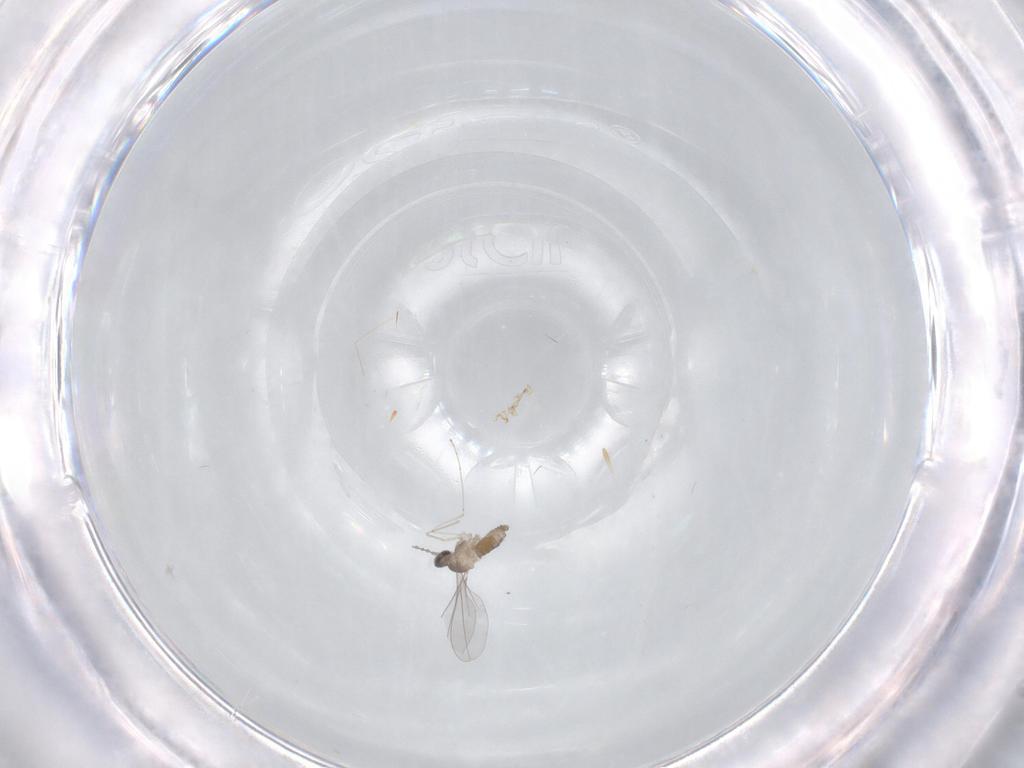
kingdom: Animalia
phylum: Arthropoda
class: Insecta
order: Diptera
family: Cecidomyiidae
